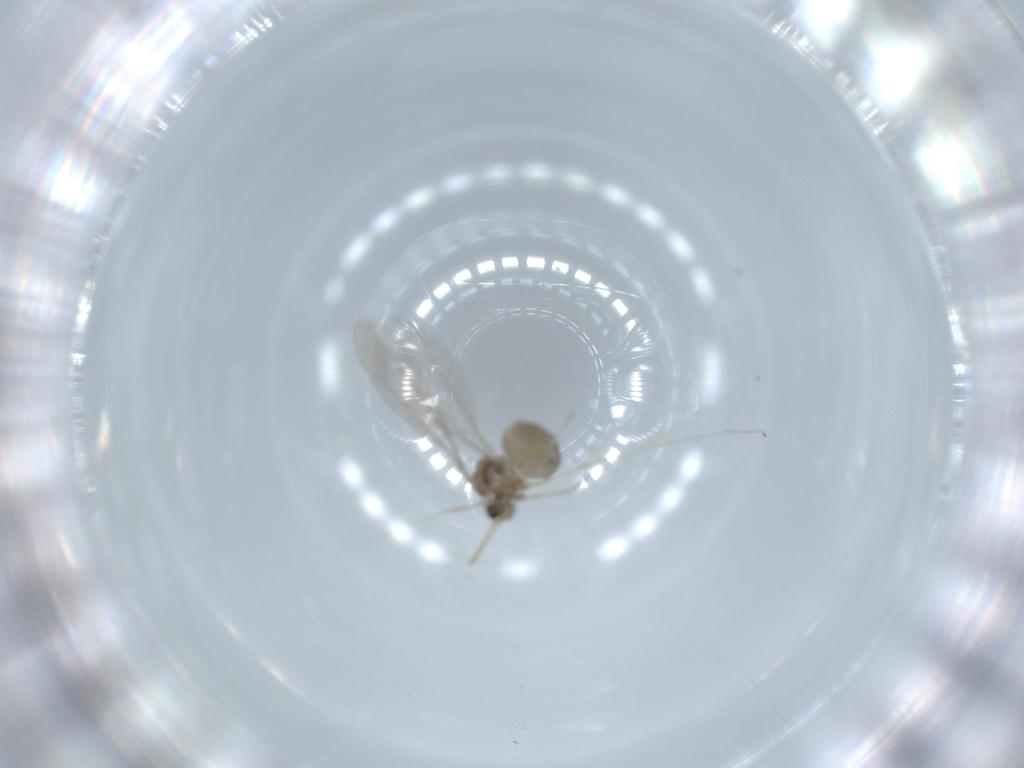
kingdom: Animalia
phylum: Arthropoda
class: Insecta
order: Diptera
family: Cecidomyiidae
